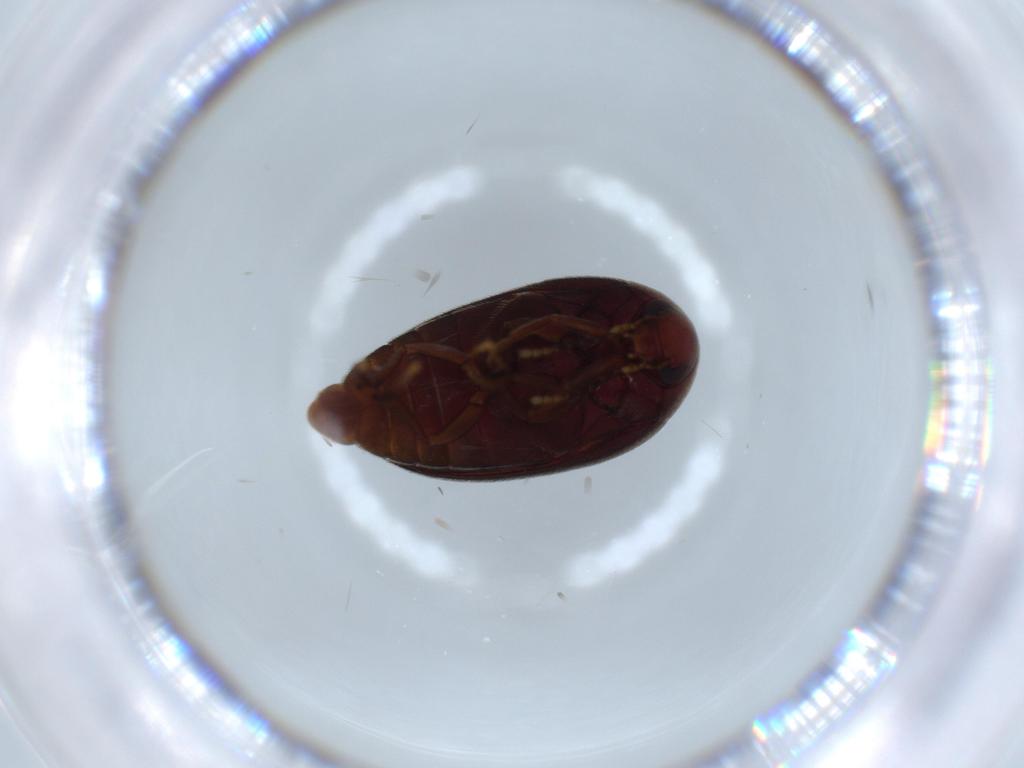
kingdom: Animalia
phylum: Arthropoda
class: Insecta
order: Coleoptera
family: Eucinetidae
